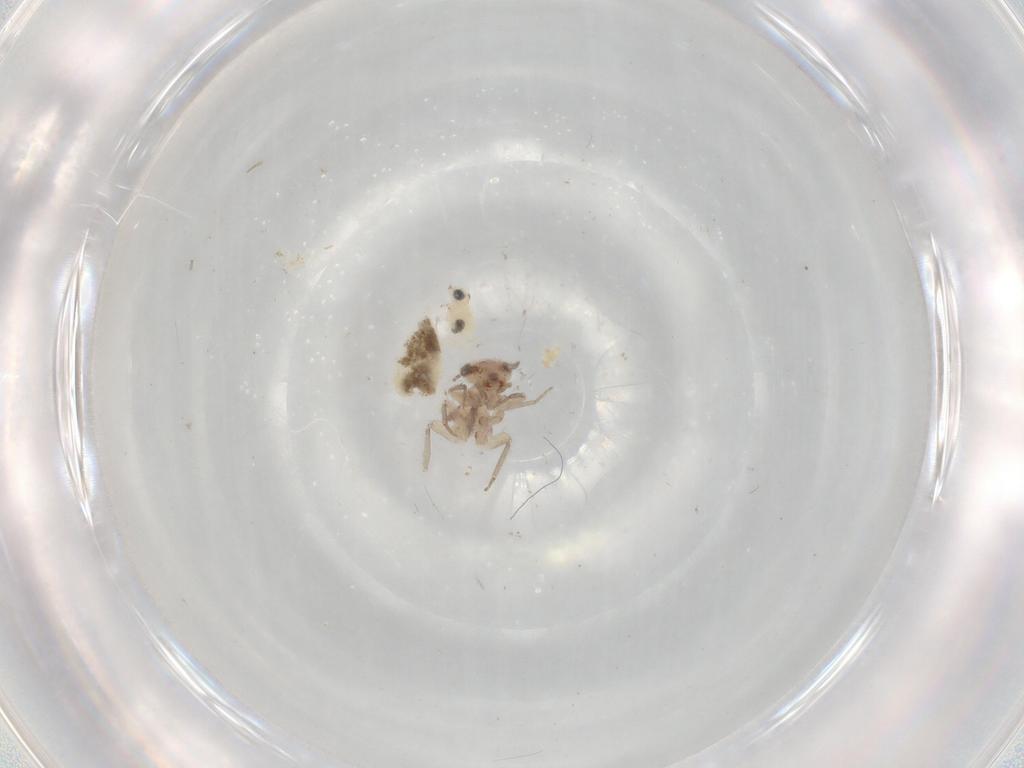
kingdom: Animalia
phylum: Arthropoda
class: Insecta
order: Psocodea
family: Lepidopsocidae
